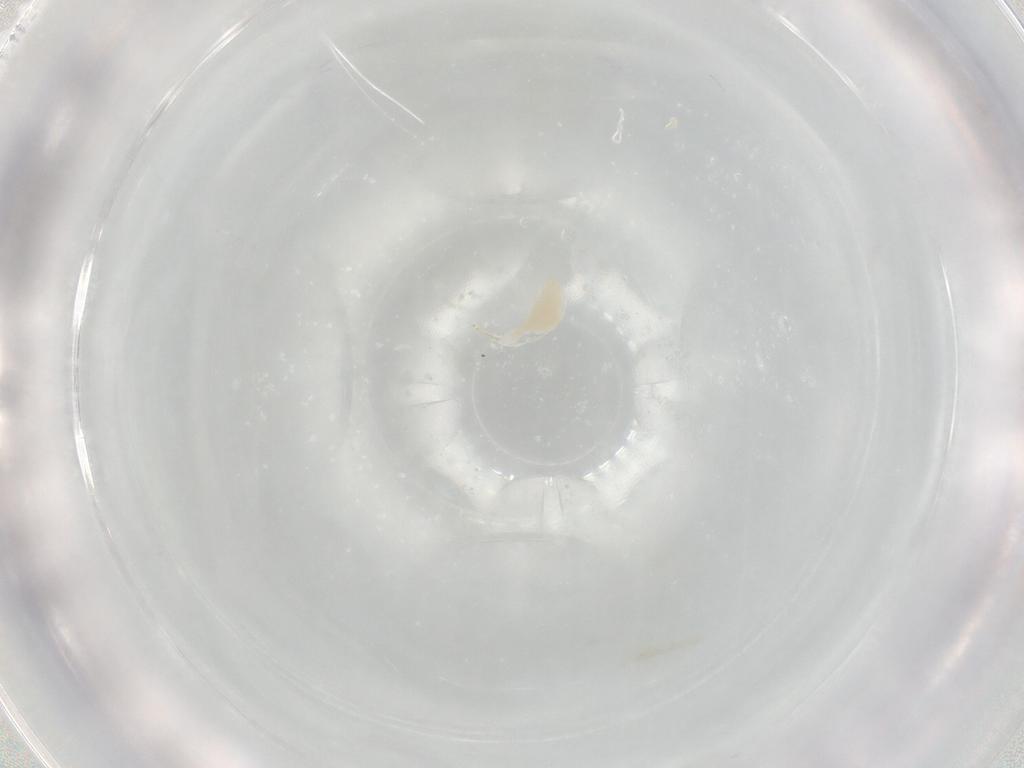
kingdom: Animalia
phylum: Arthropoda
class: Insecta
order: Hymenoptera
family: Ichneumonidae
